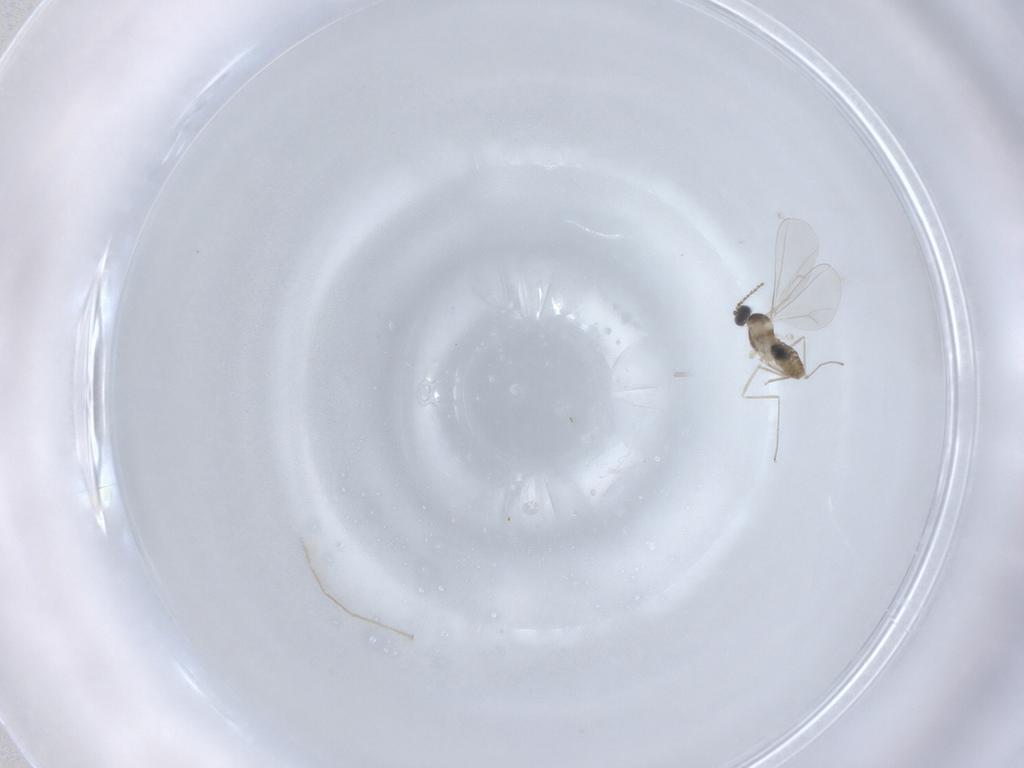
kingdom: Animalia
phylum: Arthropoda
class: Insecta
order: Diptera
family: Cecidomyiidae
